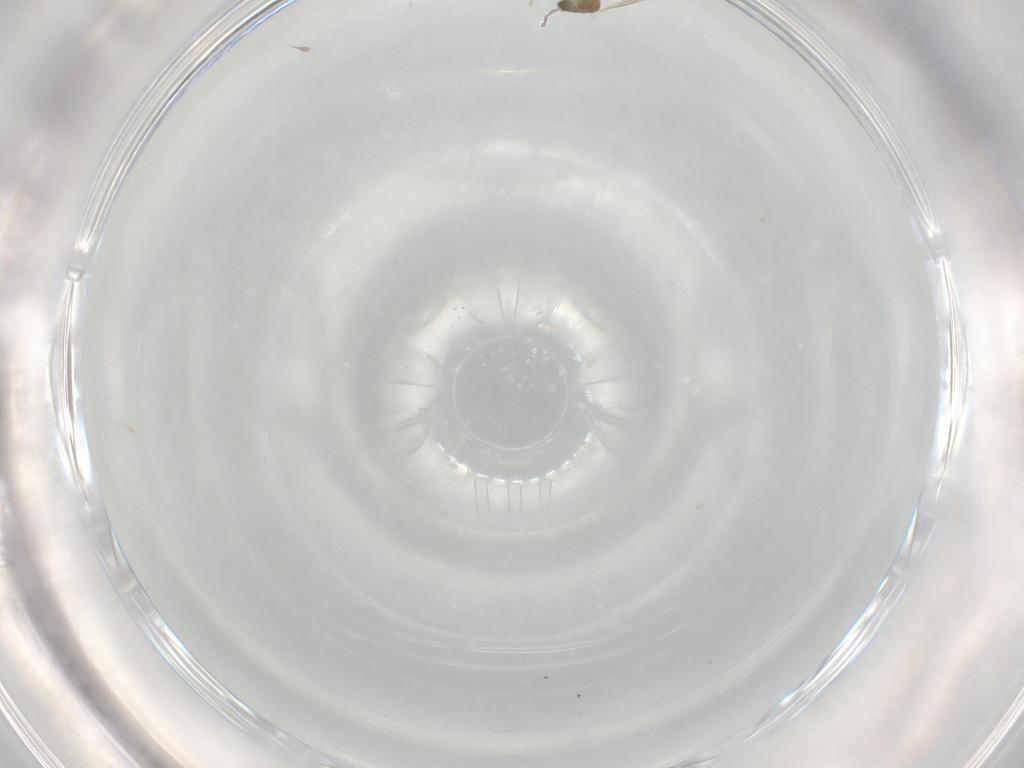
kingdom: Animalia
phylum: Arthropoda
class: Insecta
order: Diptera
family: Cecidomyiidae
